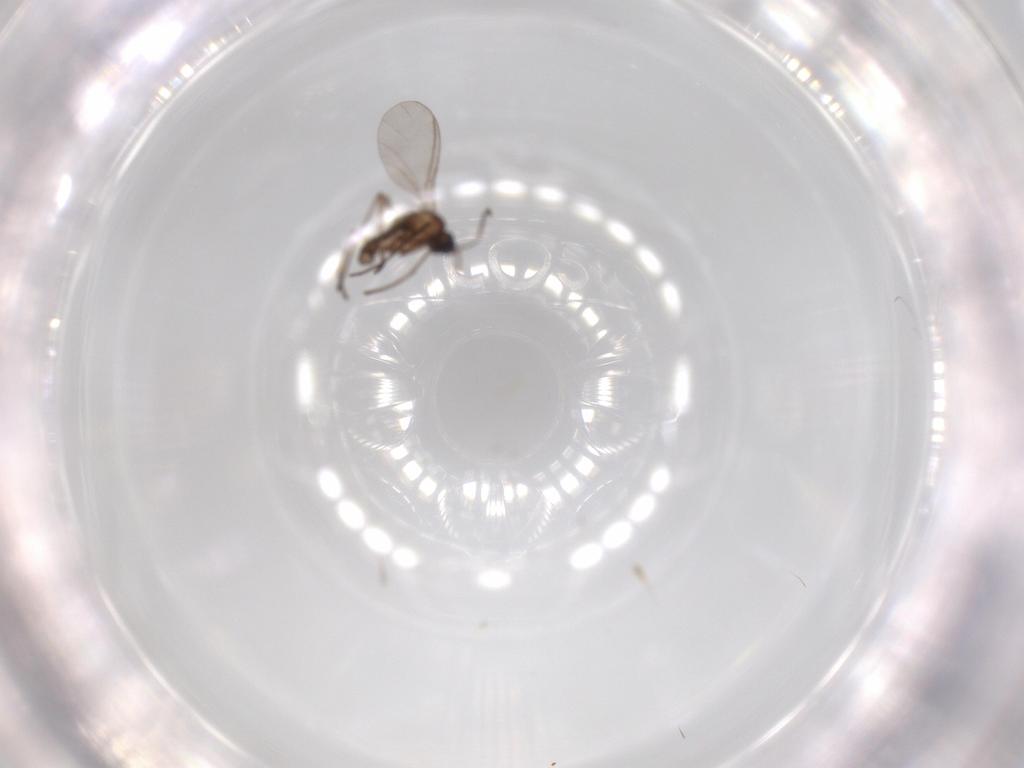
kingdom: Animalia
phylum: Arthropoda
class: Insecta
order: Diptera
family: Sciaridae
